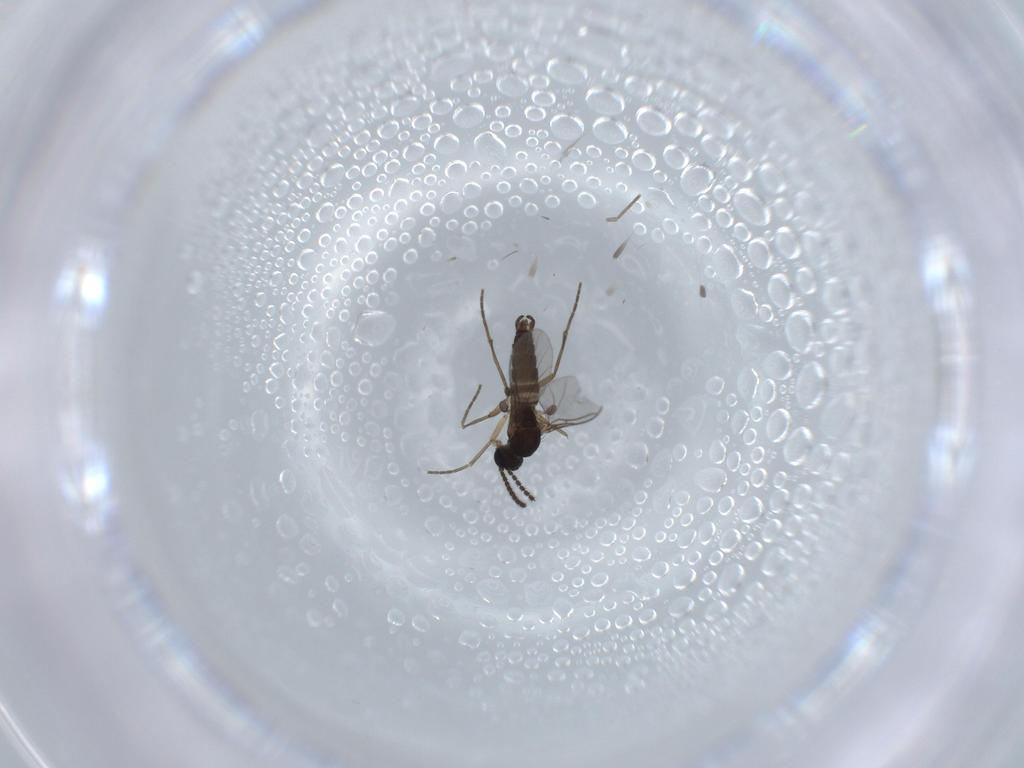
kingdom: Animalia
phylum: Arthropoda
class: Insecta
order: Diptera
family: Sciaridae
